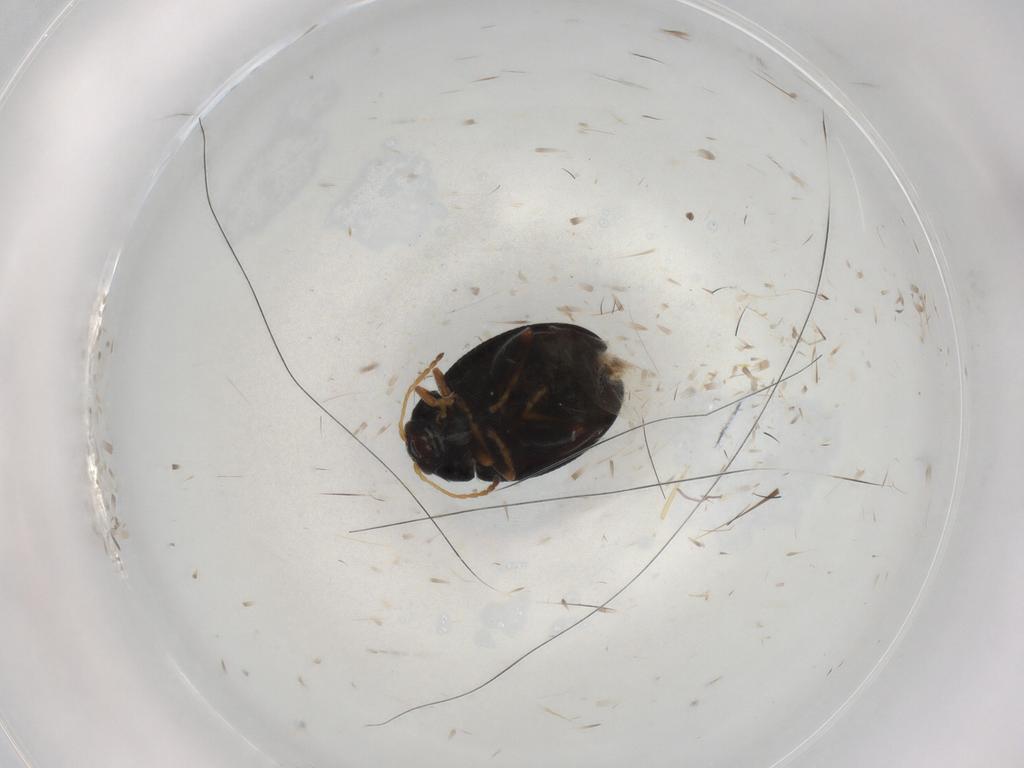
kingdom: Animalia
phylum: Arthropoda
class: Insecta
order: Coleoptera
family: Chrysomelidae
